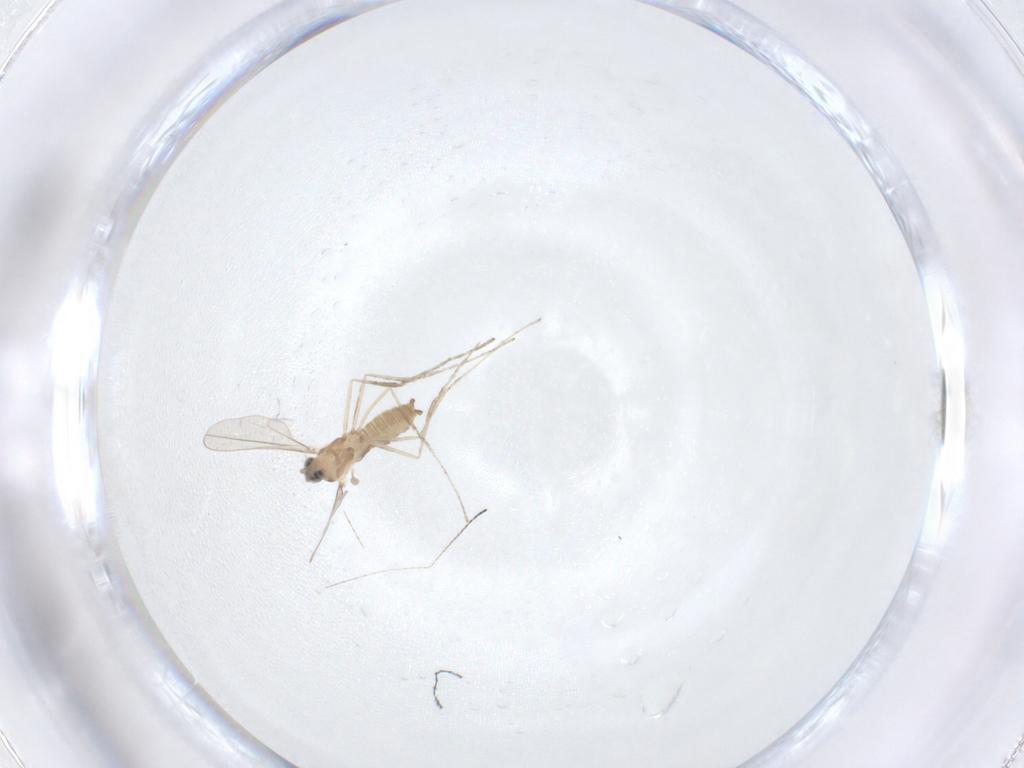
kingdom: Animalia
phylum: Arthropoda
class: Insecta
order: Diptera
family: Cecidomyiidae
